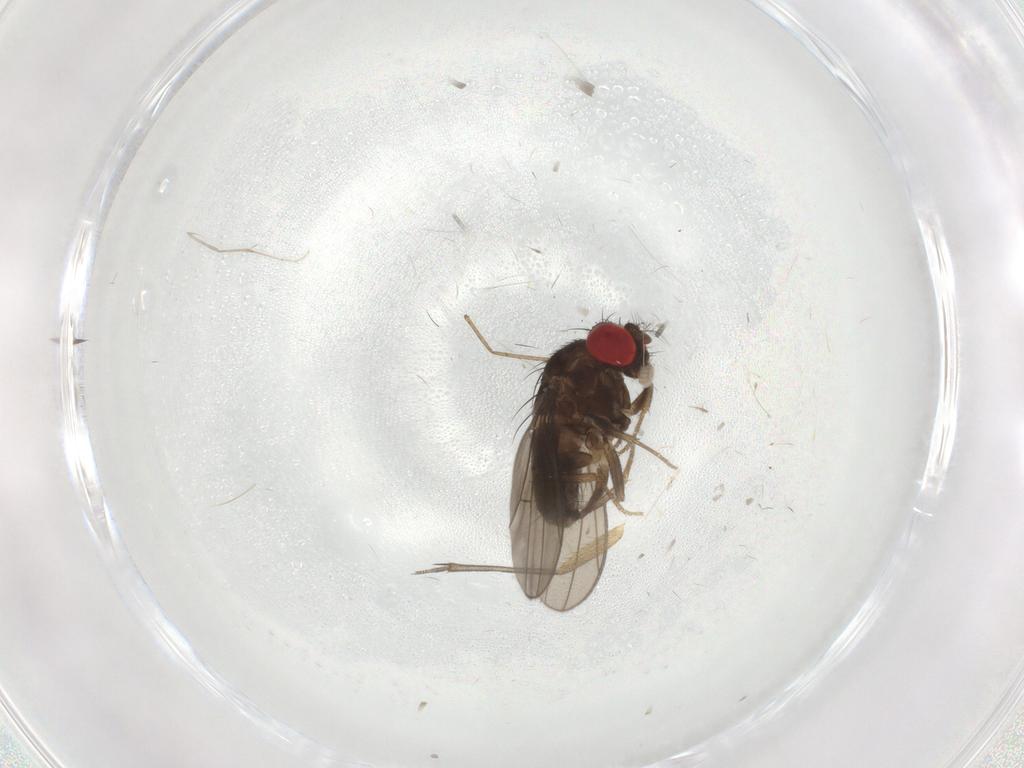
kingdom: Animalia
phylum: Arthropoda
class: Insecta
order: Diptera
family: Drosophilidae
